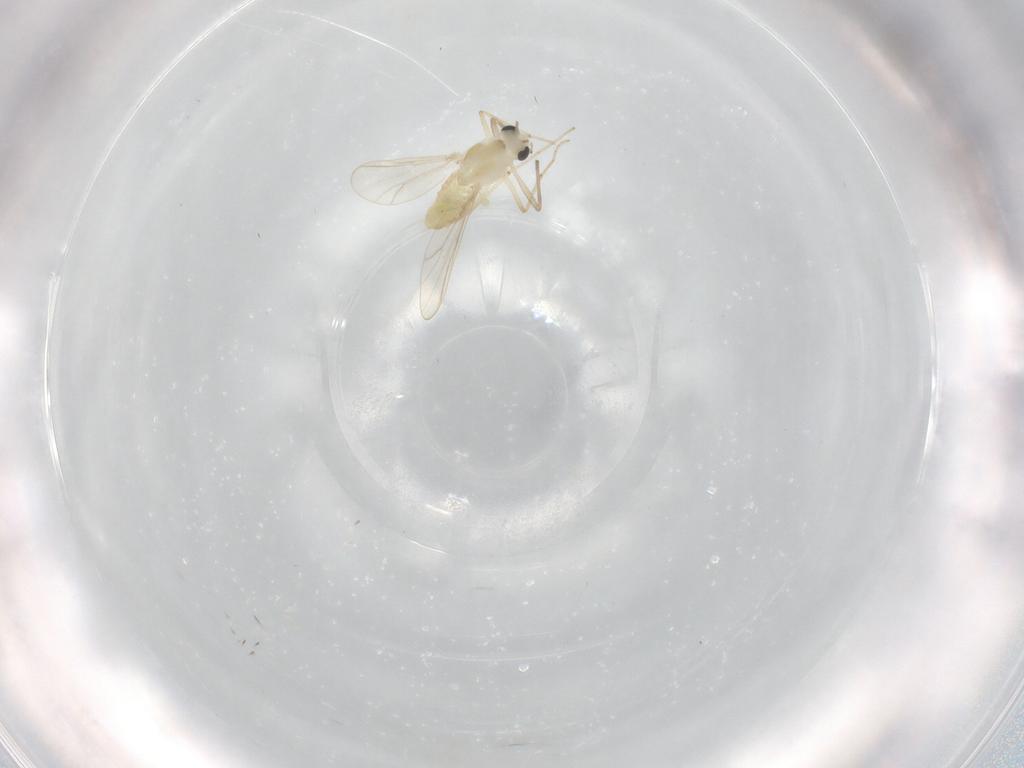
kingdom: Animalia
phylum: Arthropoda
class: Insecta
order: Diptera
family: Chironomidae
